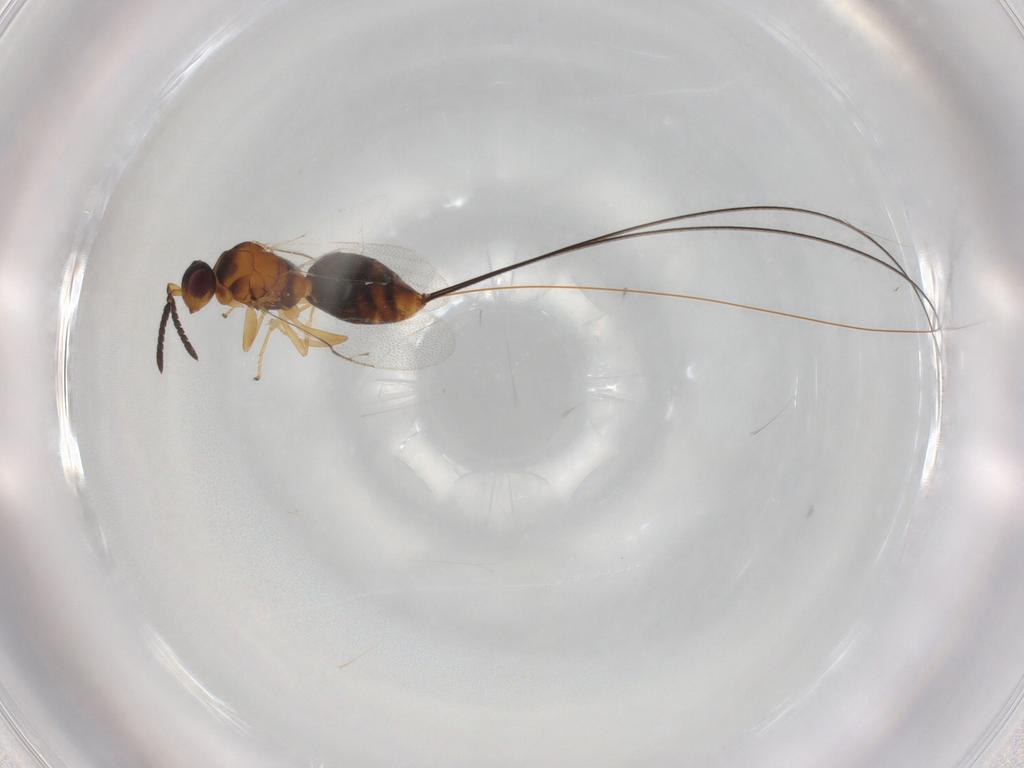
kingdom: Animalia
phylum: Arthropoda
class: Insecta
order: Hymenoptera
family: Pteromalidae
